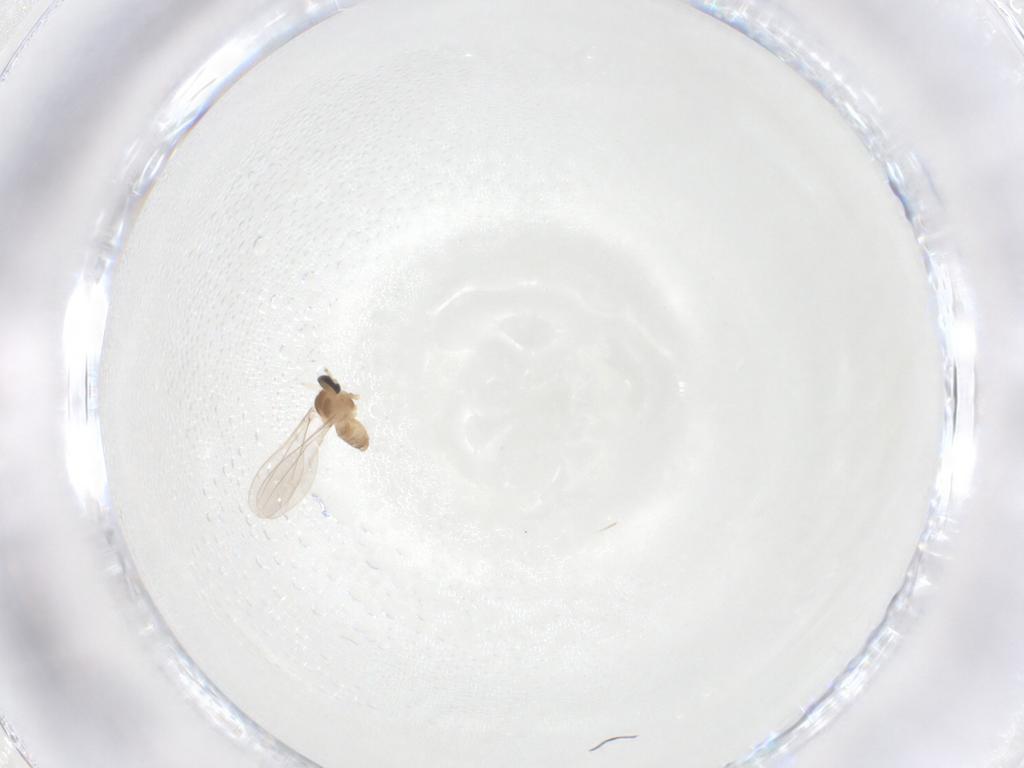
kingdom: Animalia
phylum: Arthropoda
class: Insecta
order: Diptera
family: Cecidomyiidae
